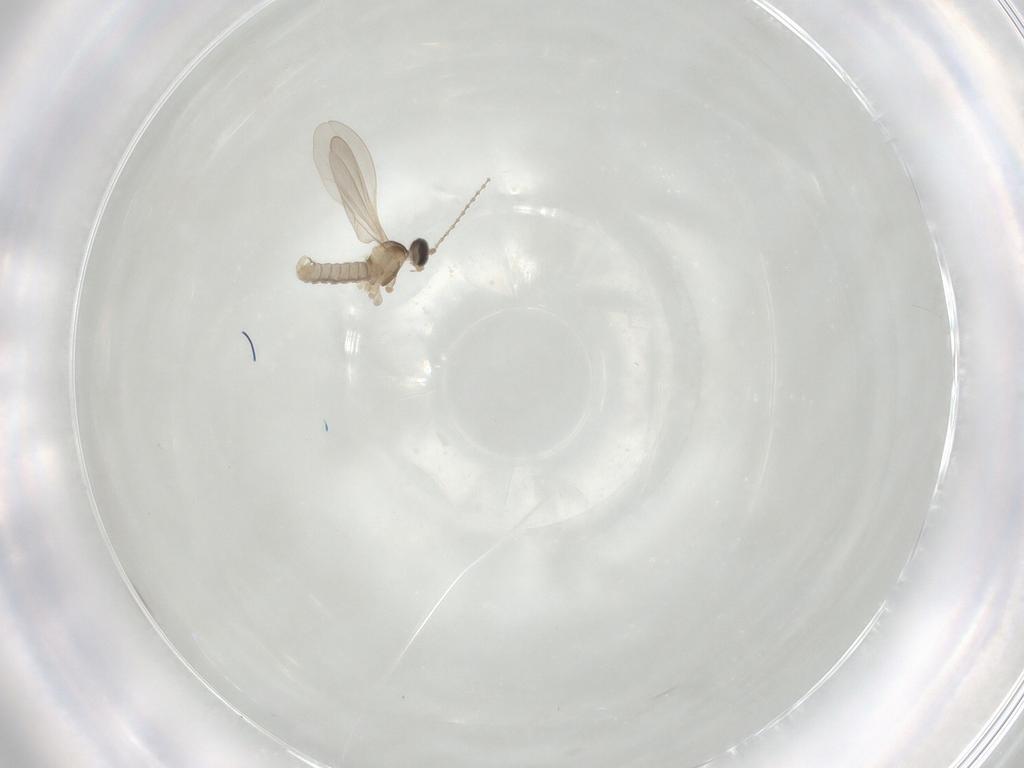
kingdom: Animalia
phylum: Arthropoda
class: Insecta
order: Diptera
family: Cecidomyiidae
